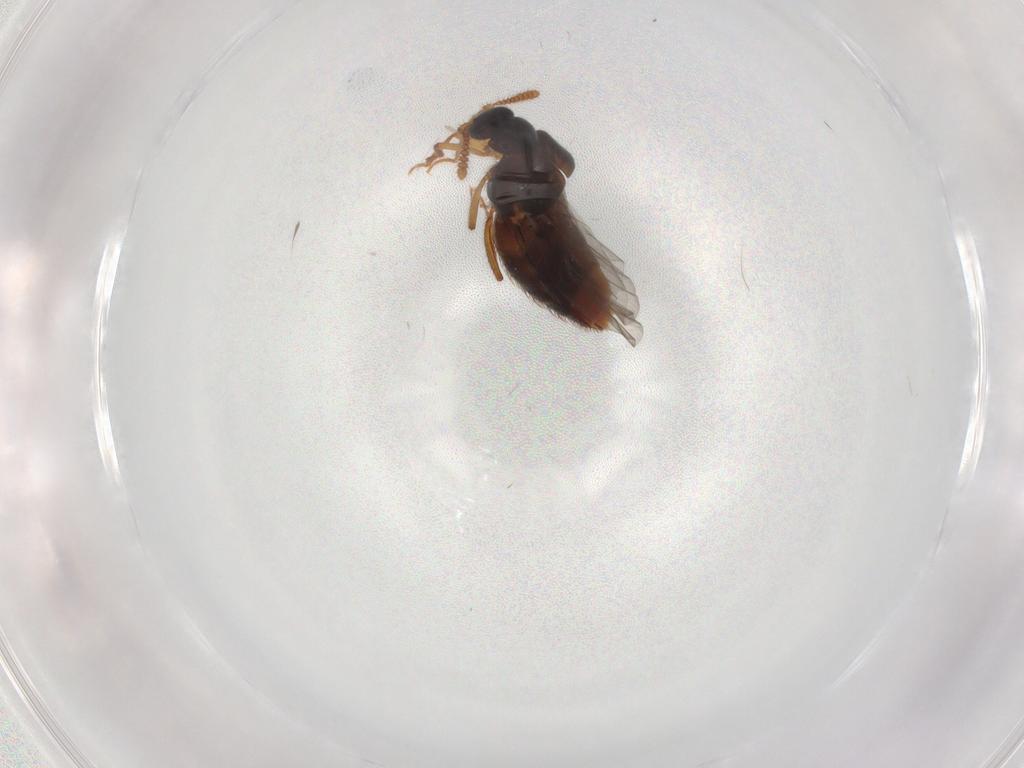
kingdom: Animalia
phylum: Arthropoda
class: Insecta
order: Coleoptera
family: Staphylinidae
